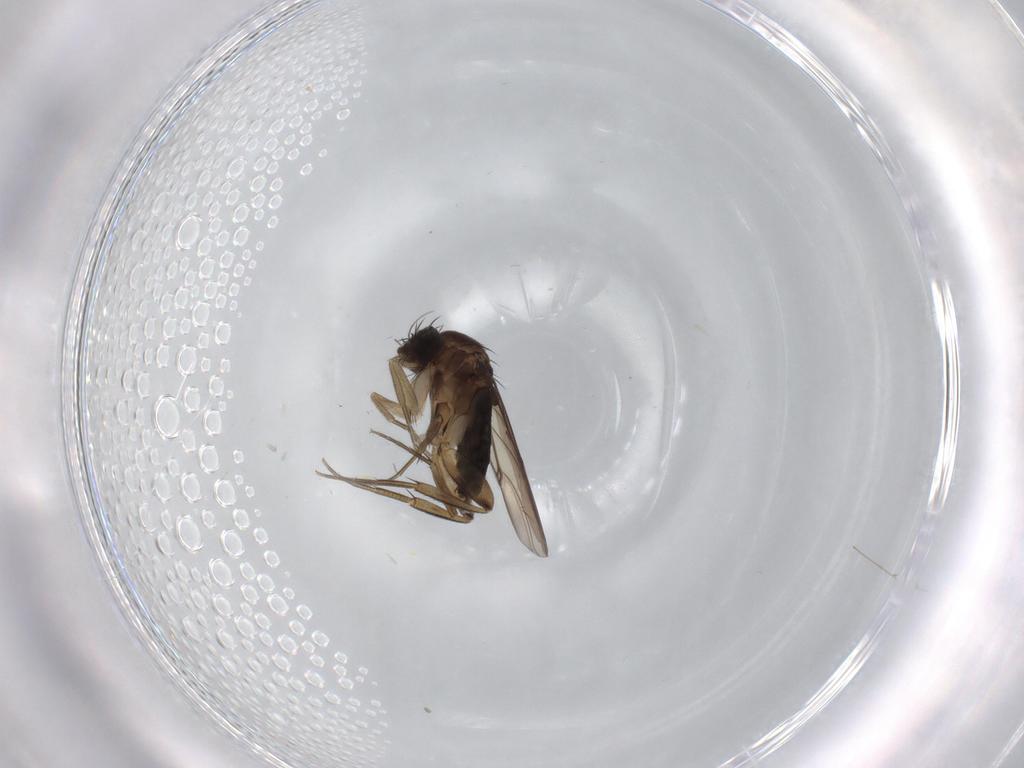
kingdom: Animalia
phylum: Arthropoda
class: Insecta
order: Diptera
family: Phoridae
